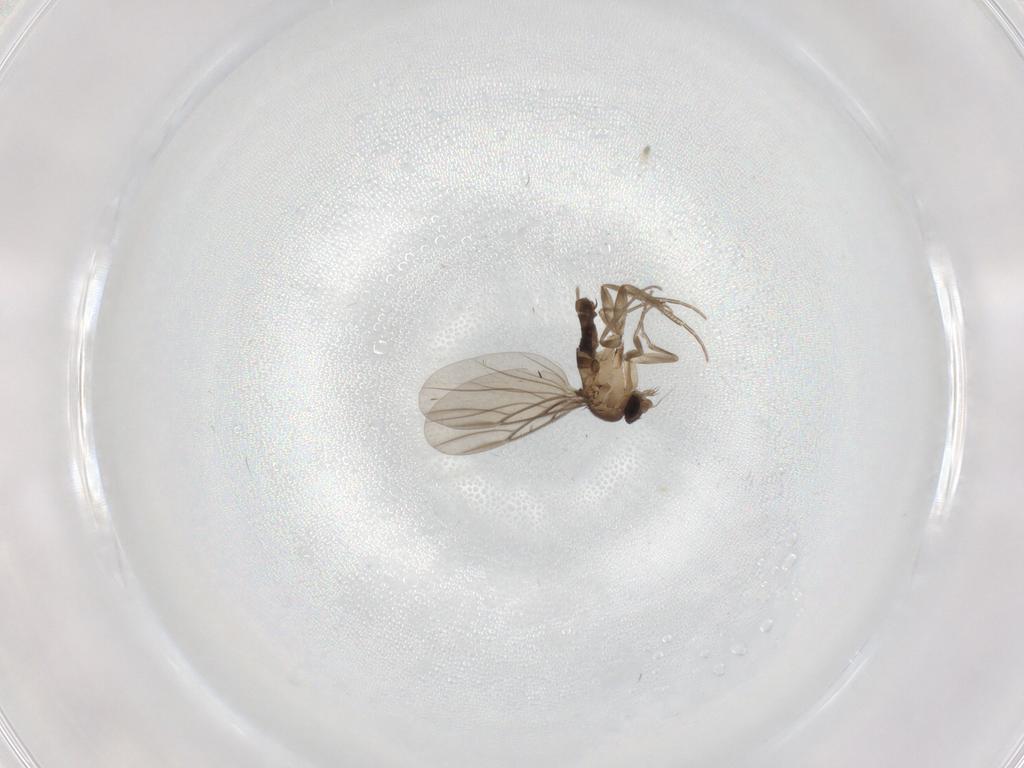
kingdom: Animalia
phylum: Arthropoda
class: Insecta
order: Diptera
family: Phoridae
